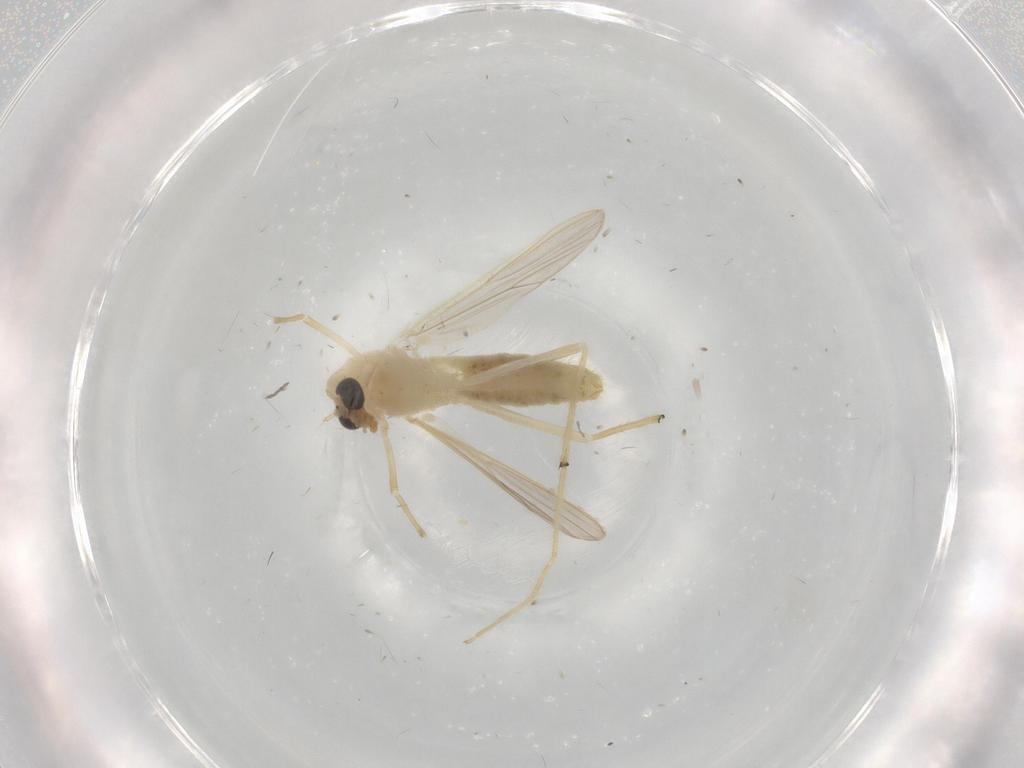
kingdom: Animalia
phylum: Arthropoda
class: Insecta
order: Diptera
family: Chironomidae
